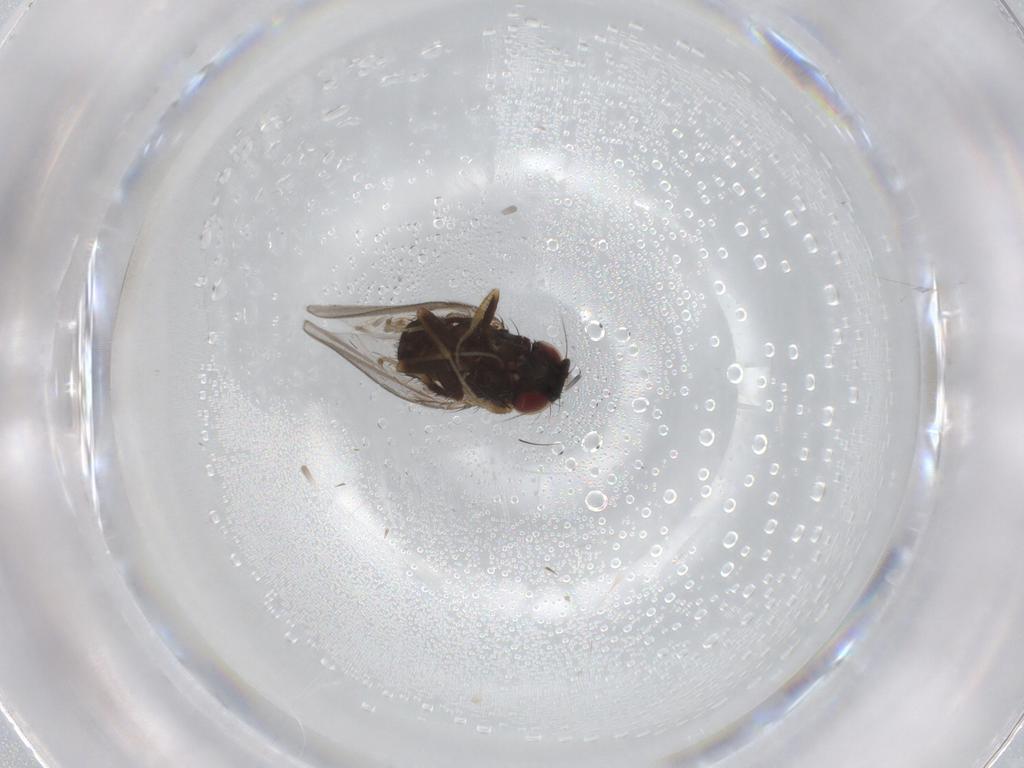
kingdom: Animalia
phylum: Arthropoda
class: Insecta
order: Diptera
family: Milichiidae
